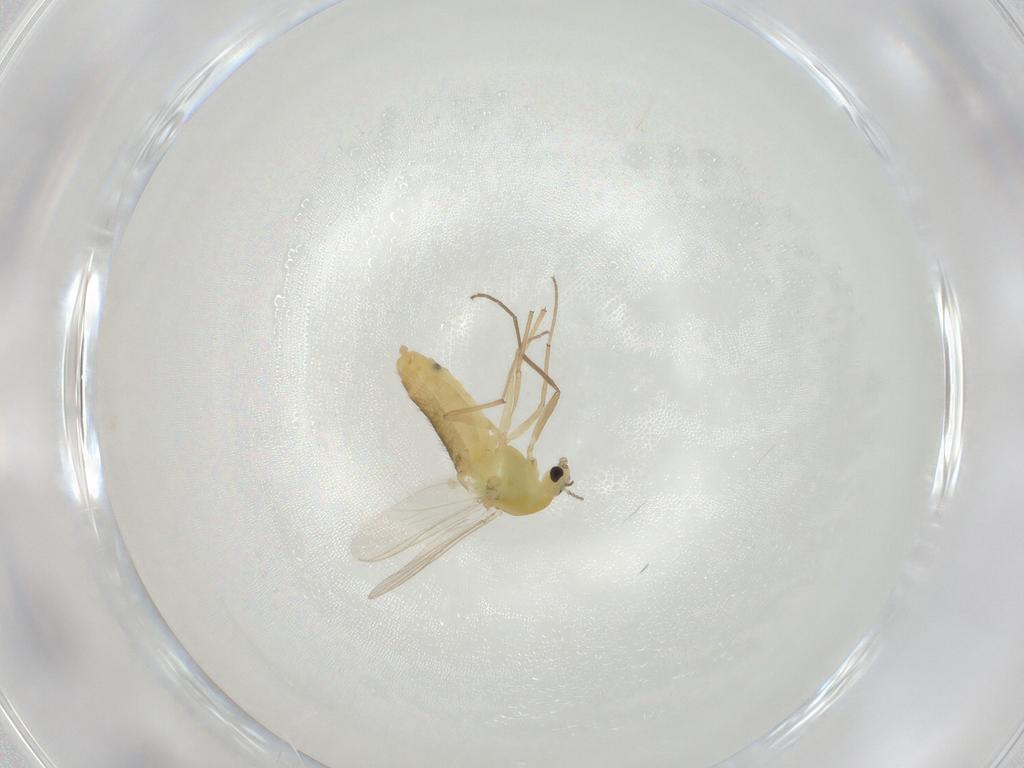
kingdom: Animalia
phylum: Arthropoda
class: Insecta
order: Diptera
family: Chironomidae
